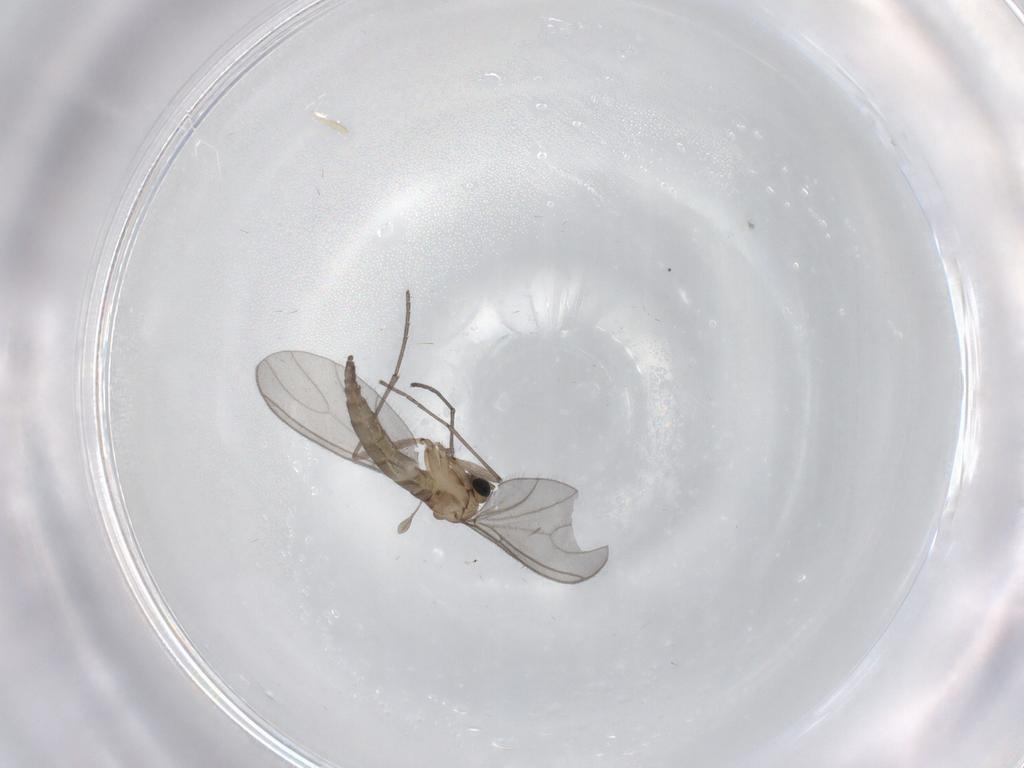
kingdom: Animalia
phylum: Arthropoda
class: Insecta
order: Diptera
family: Sciaridae
